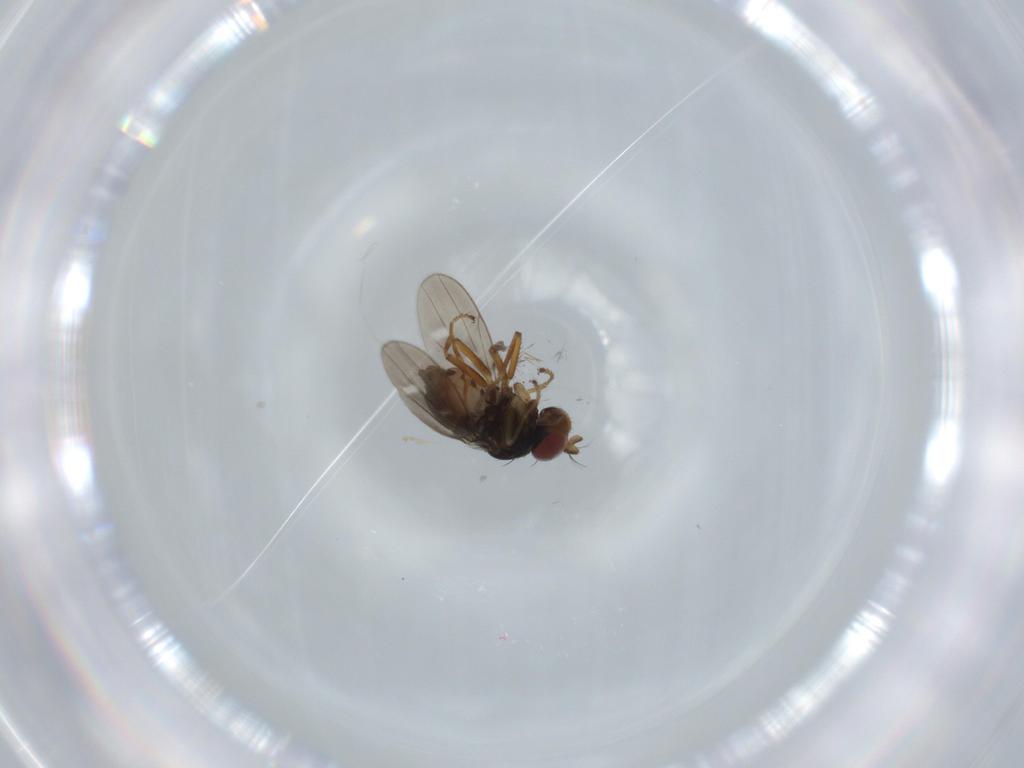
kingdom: Animalia
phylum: Arthropoda
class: Insecta
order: Diptera
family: Ephydridae
